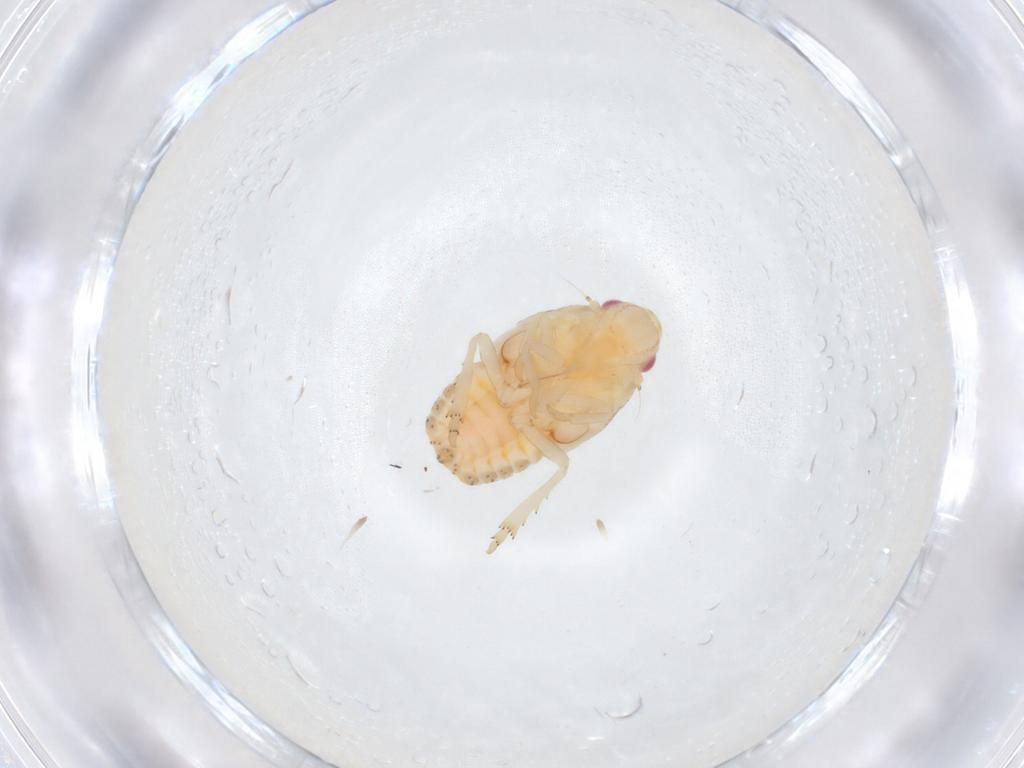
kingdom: Animalia
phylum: Arthropoda
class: Insecta
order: Hemiptera
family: Flatidae
